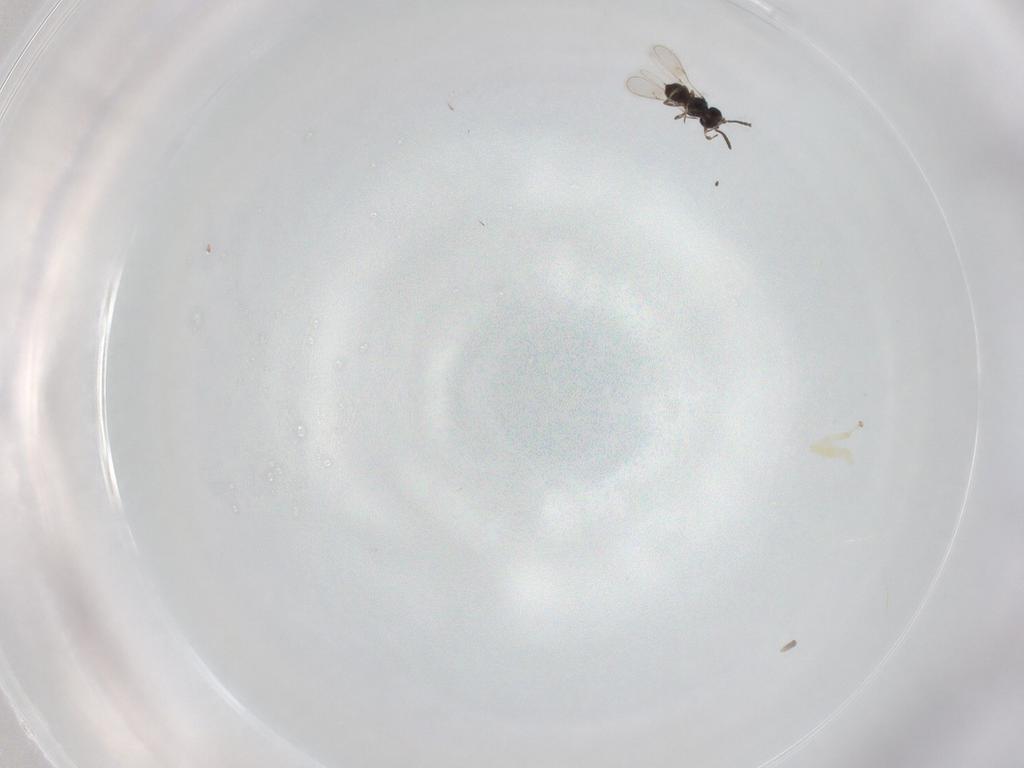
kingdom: Animalia
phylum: Arthropoda
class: Insecta
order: Hymenoptera
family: Scelionidae
